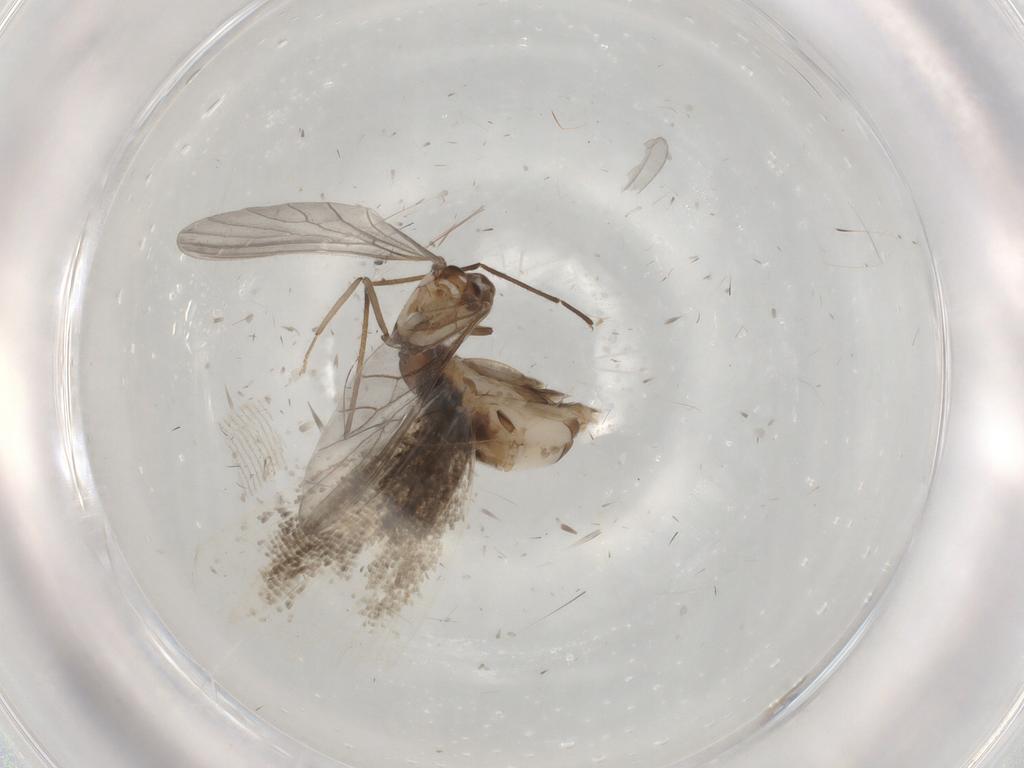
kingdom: Animalia
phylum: Arthropoda
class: Insecta
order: Lepidoptera
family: Momphidae
